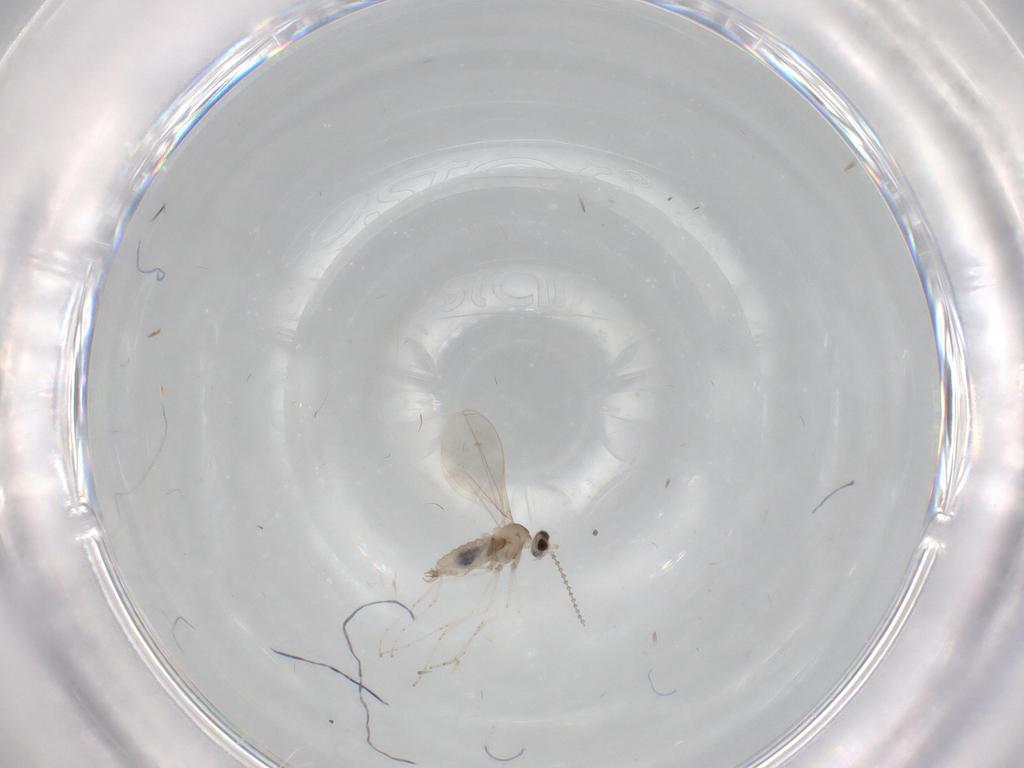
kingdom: Animalia
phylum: Arthropoda
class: Insecta
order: Diptera
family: Cecidomyiidae
